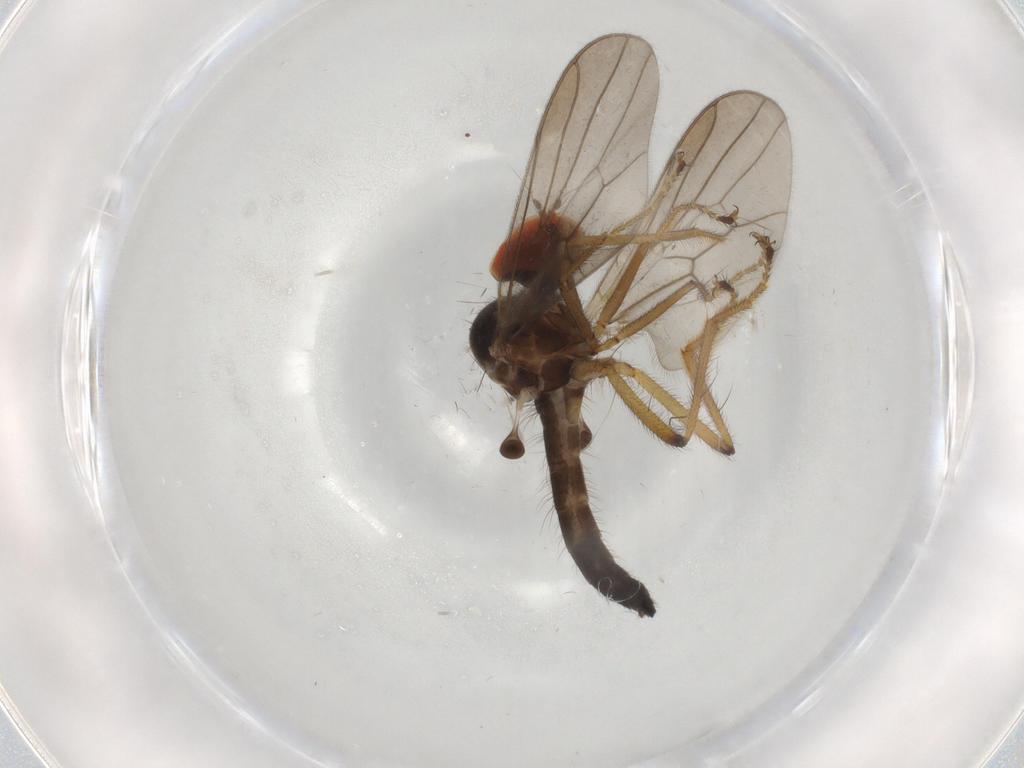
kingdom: Animalia
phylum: Arthropoda
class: Insecta
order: Diptera
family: Hybotidae
